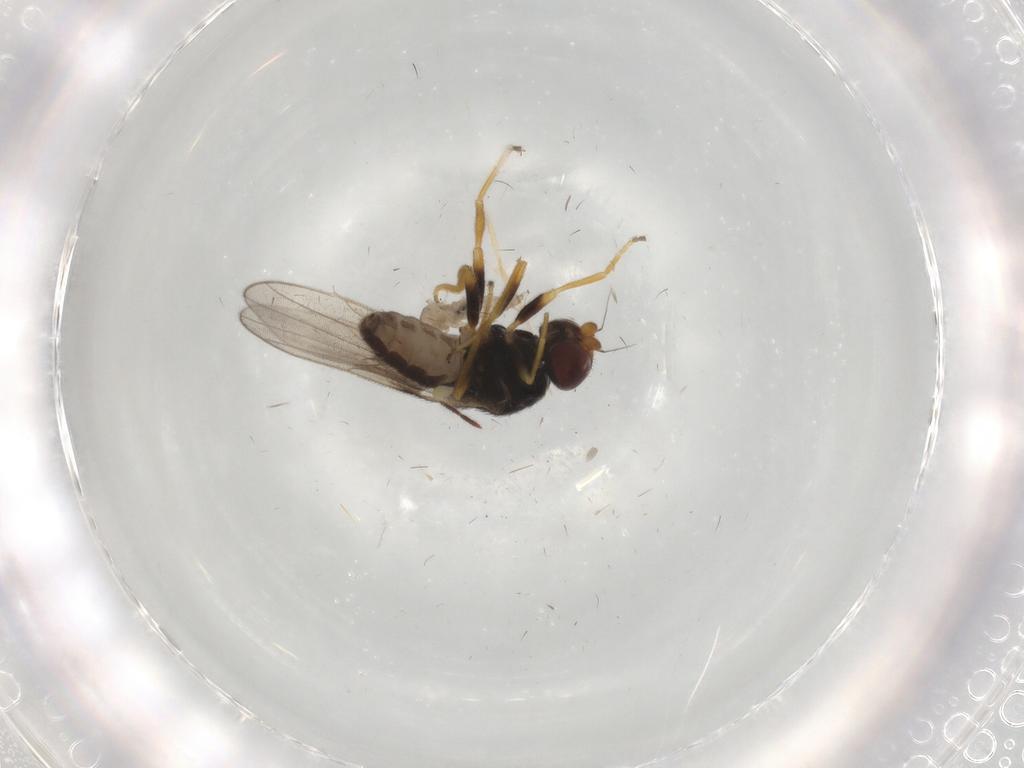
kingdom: Animalia
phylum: Arthropoda
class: Insecta
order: Diptera
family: Chloropidae
